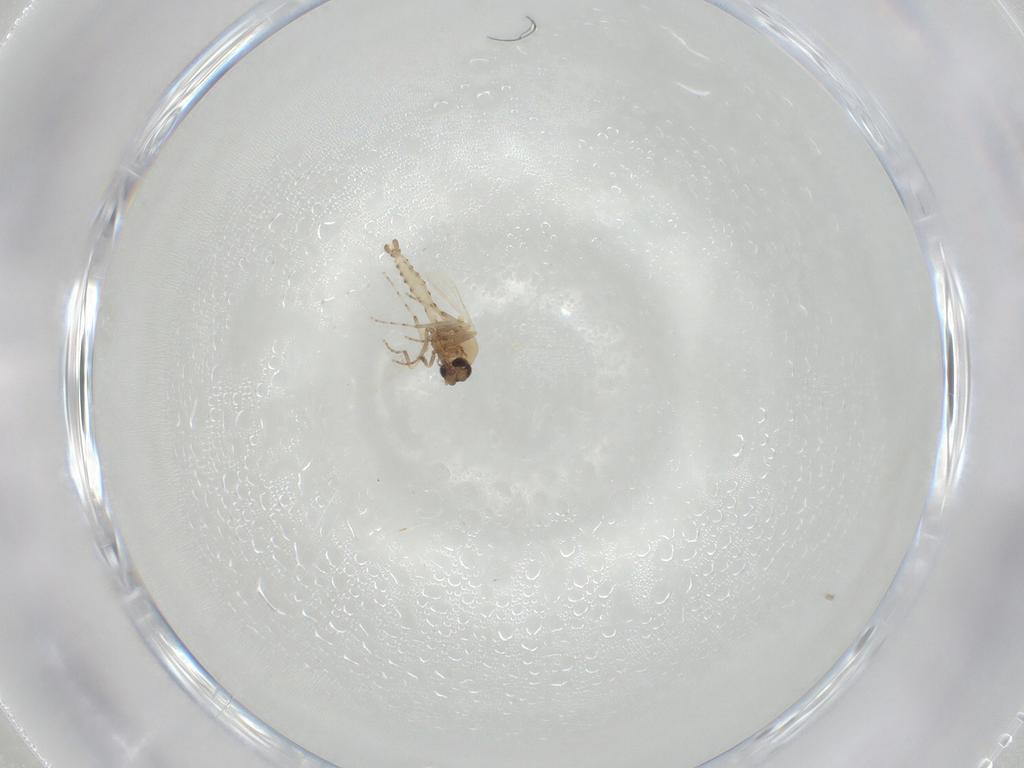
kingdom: Animalia
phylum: Arthropoda
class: Insecta
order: Diptera
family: Ceratopogonidae
